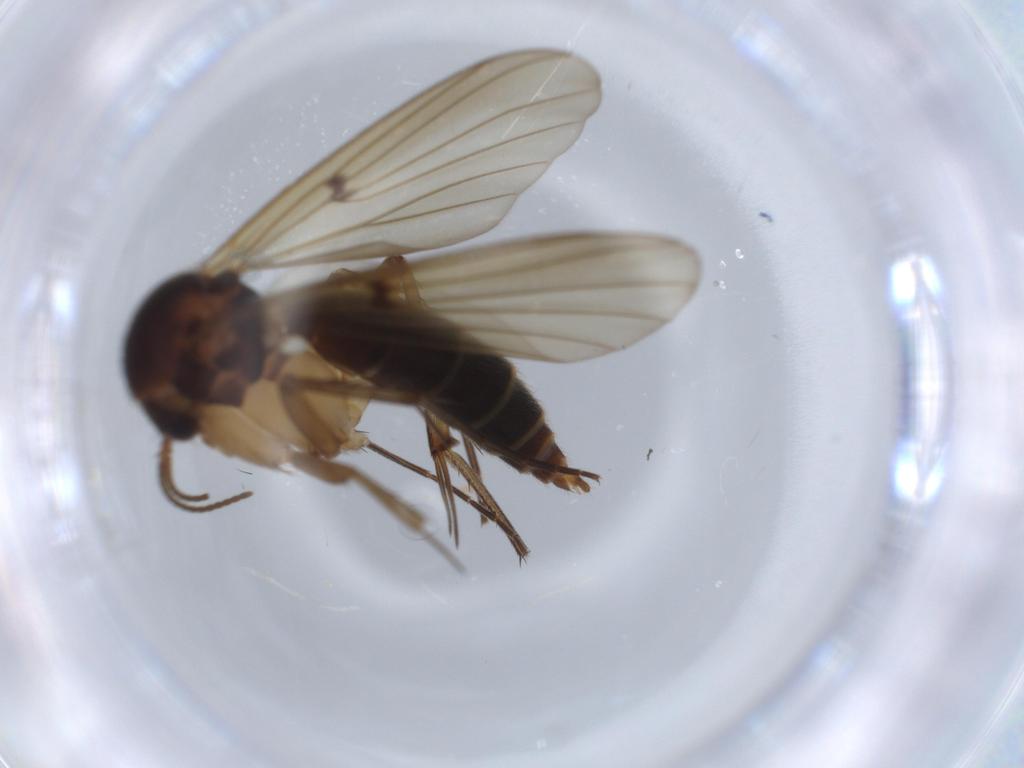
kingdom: Animalia
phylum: Arthropoda
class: Insecta
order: Diptera
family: Mycetophilidae
